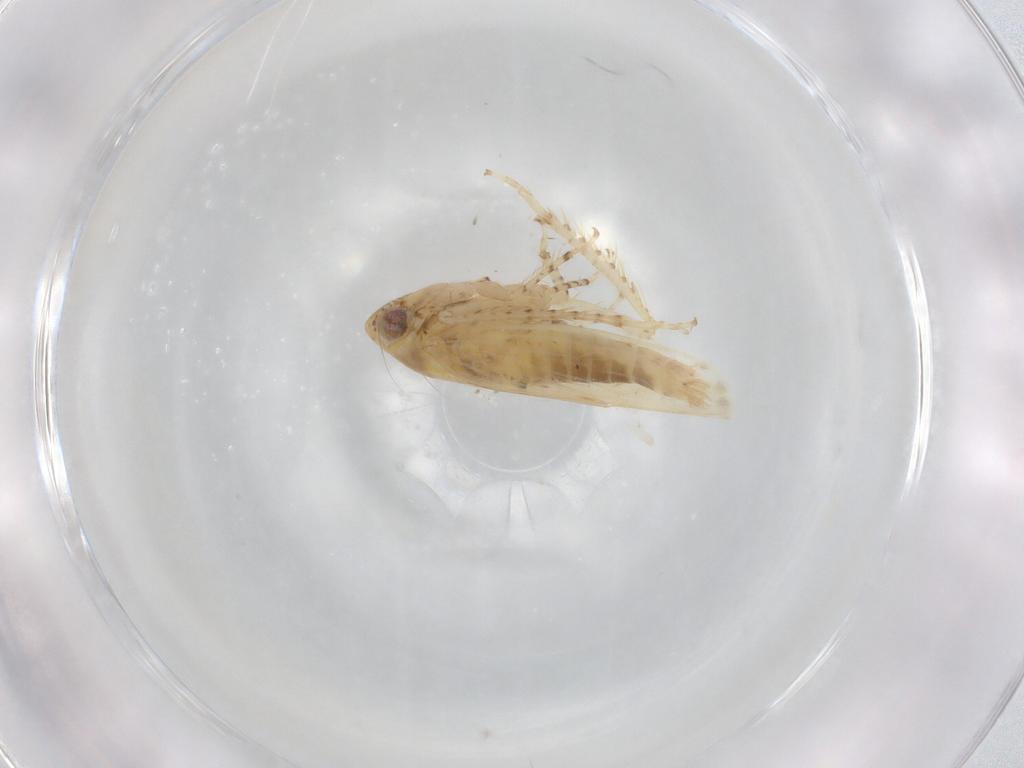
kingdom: Animalia
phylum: Arthropoda
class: Insecta
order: Hemiptera
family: Cicadellidae
